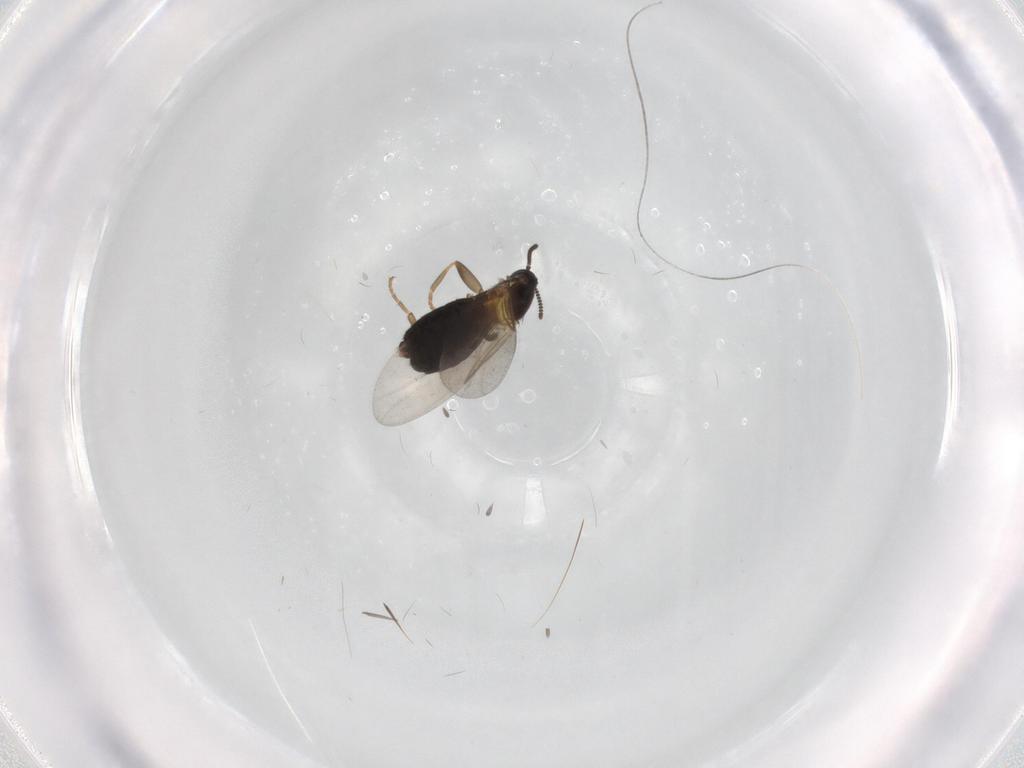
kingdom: Animalia
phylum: Arthropoda
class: Insecta
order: Diptera
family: Scatopsidae
